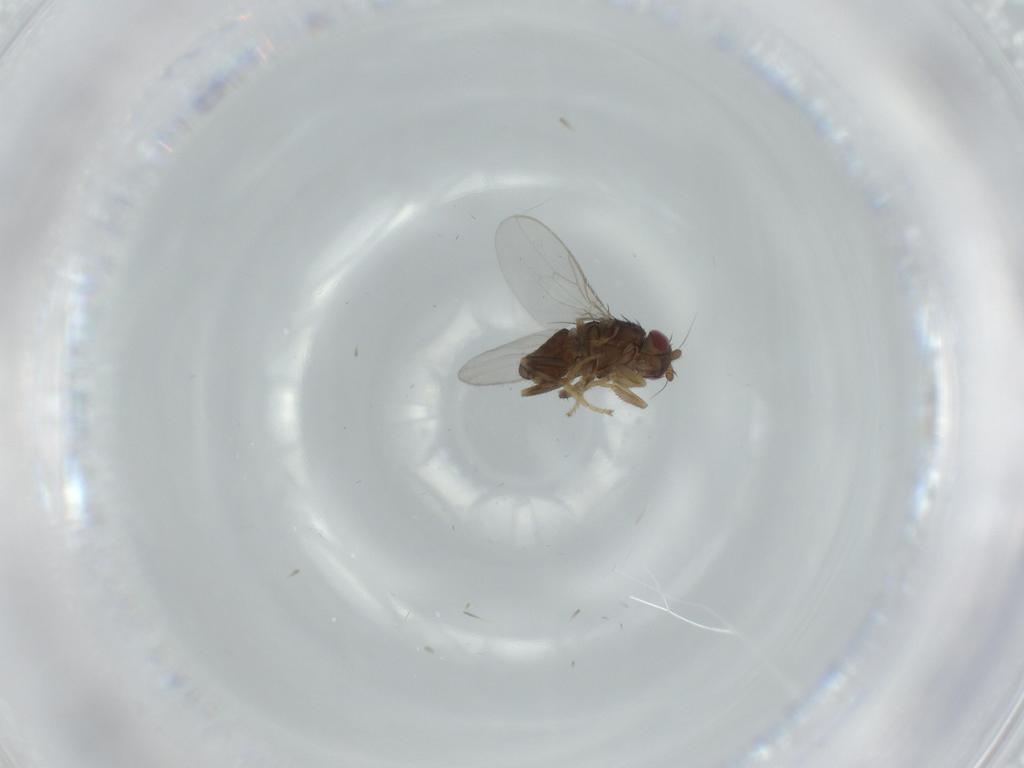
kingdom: Animalia
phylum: Arthropoda
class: Insecta
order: Diptera
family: Sphaeroceridae
